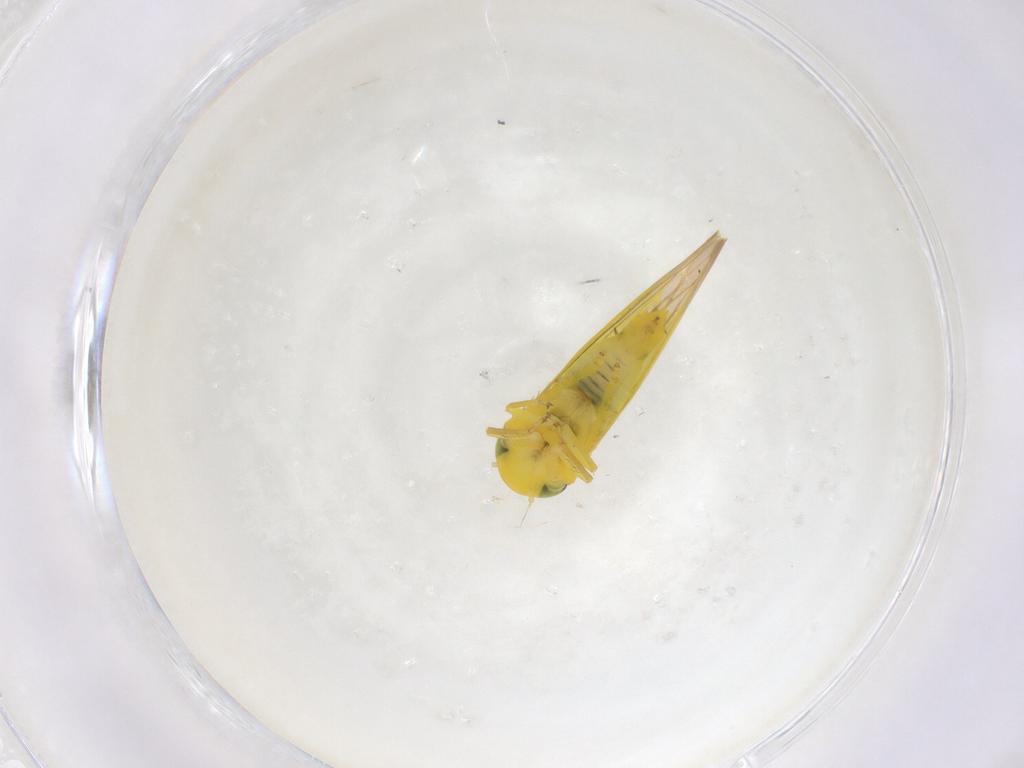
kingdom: Animalia
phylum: Arthropoda
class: Insecta
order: Hemiptera
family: Cicadellidae
